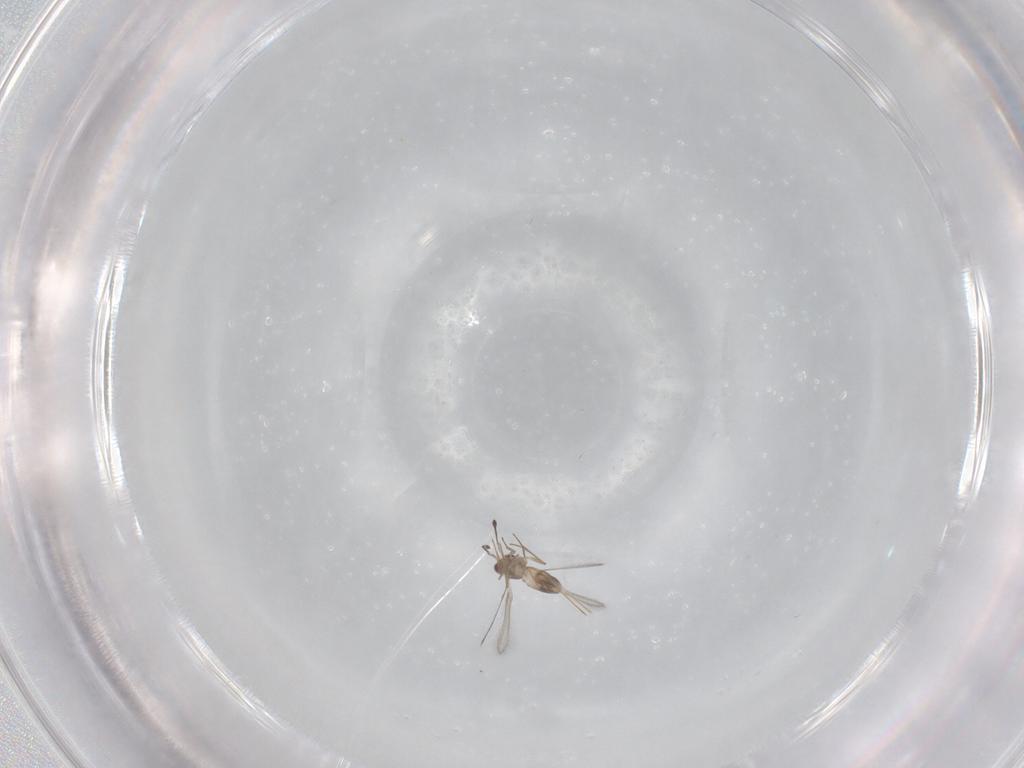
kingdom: Animalia
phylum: Arthropoda
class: Insecta
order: Hymenoptera
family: Mymaridae
